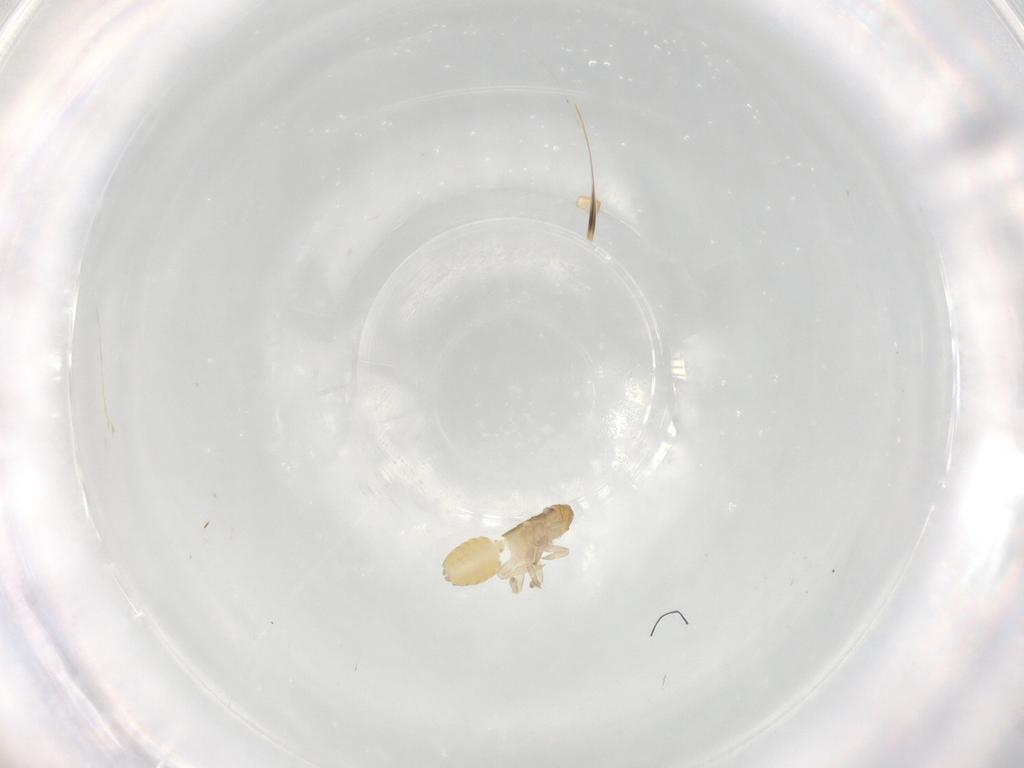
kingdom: Animalia
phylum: Arthropoda
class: Insecta
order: Hemiptera
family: Delphacidae
